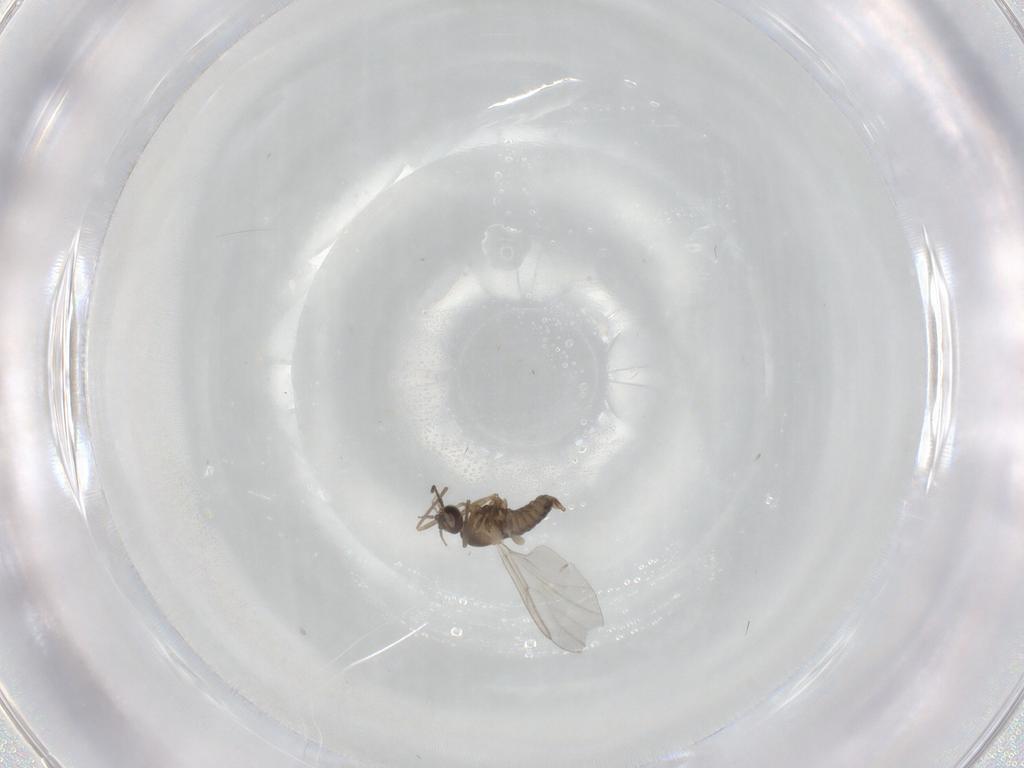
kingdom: Animalia
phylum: Arthropoda
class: Insecta
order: Diptera
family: Cecidomyiidae
